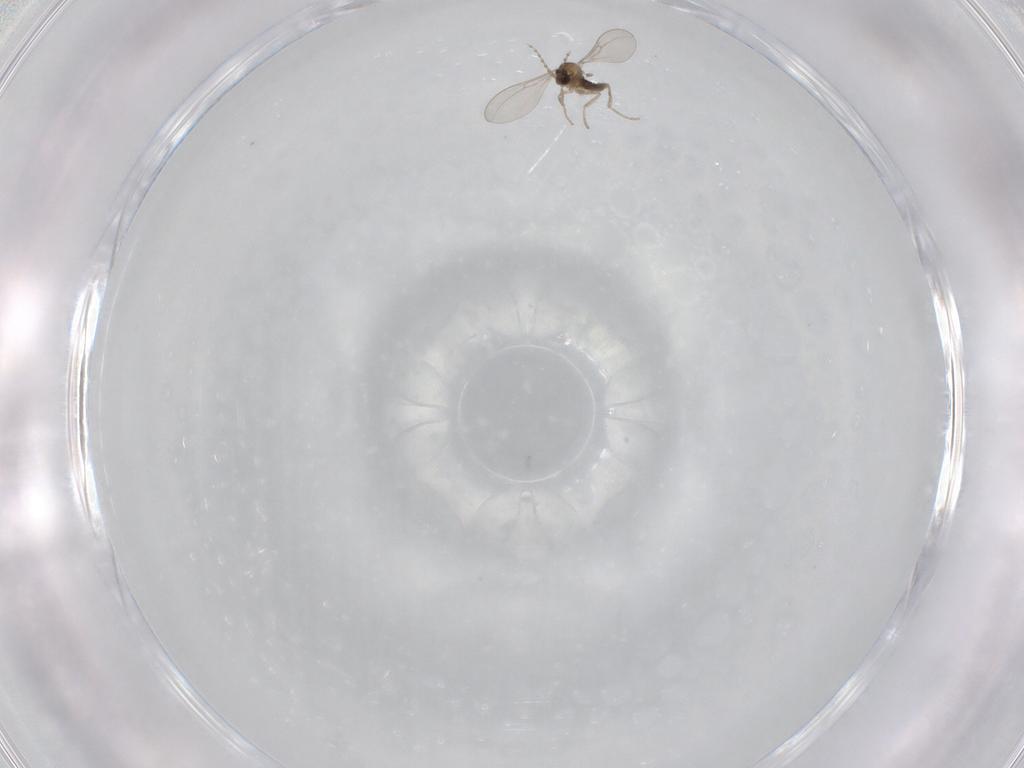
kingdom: Animalia
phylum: Arthropoda
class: Insecta
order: Diptera
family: Cecidomyiidae
